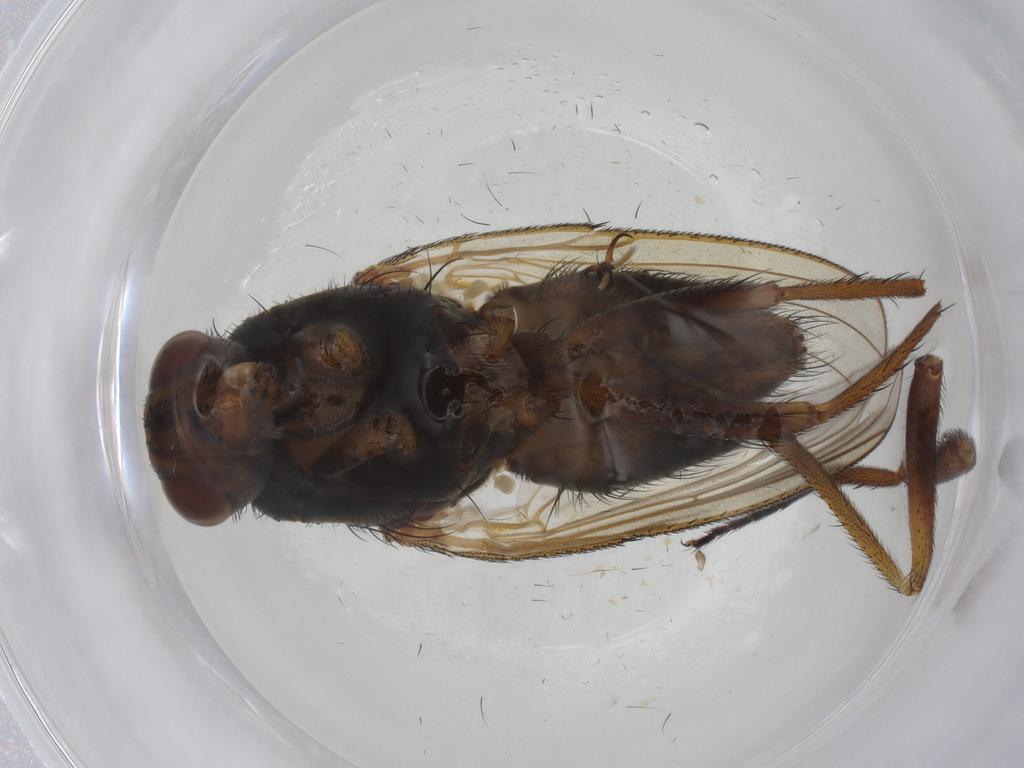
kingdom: Animalia
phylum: Arthropoda
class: Insecta
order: Diptera
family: Anthomyiidae
